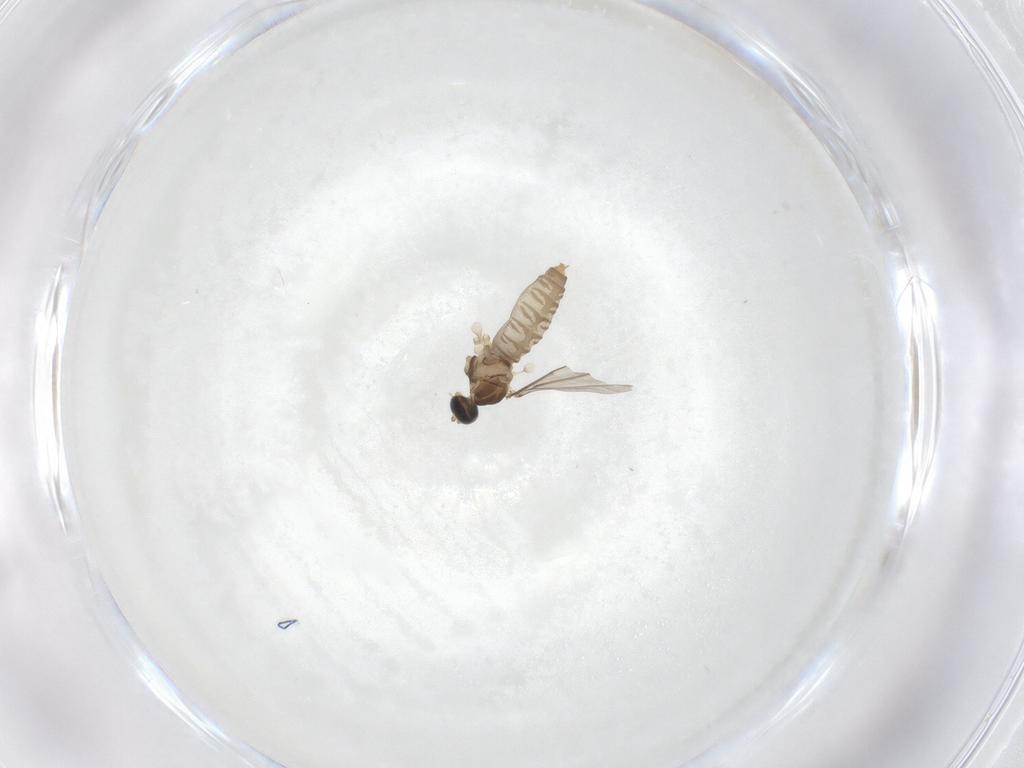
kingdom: Animalia
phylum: Arthropoda
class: Insecta
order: Diptera
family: Cecidomyiidae
